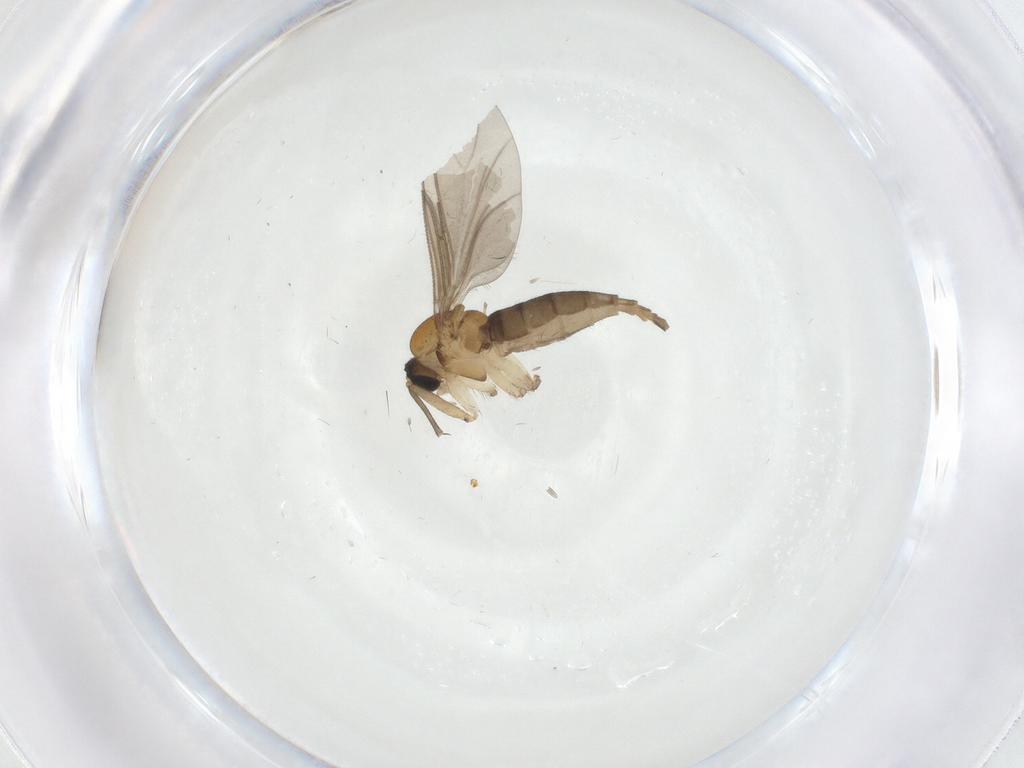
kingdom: Animalia
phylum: Arthropoda
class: Insecta
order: Diptera
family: Sciaridae
